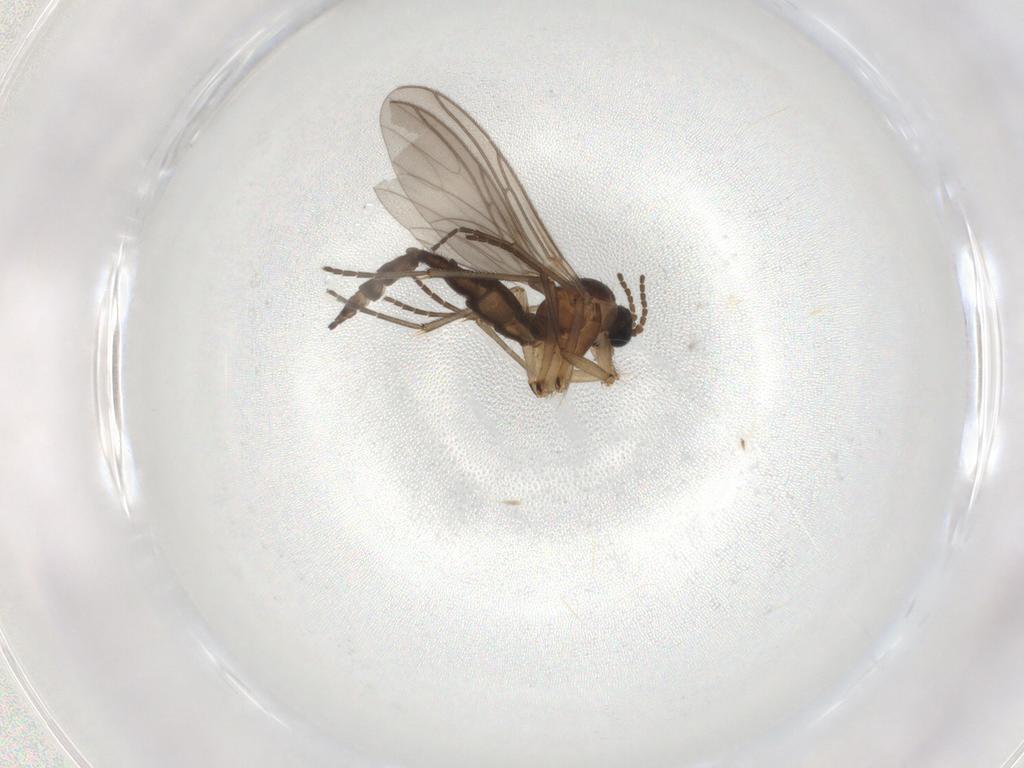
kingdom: Animalia
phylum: Arthropoda
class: Insecta
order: Diptera
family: Sciaridae
